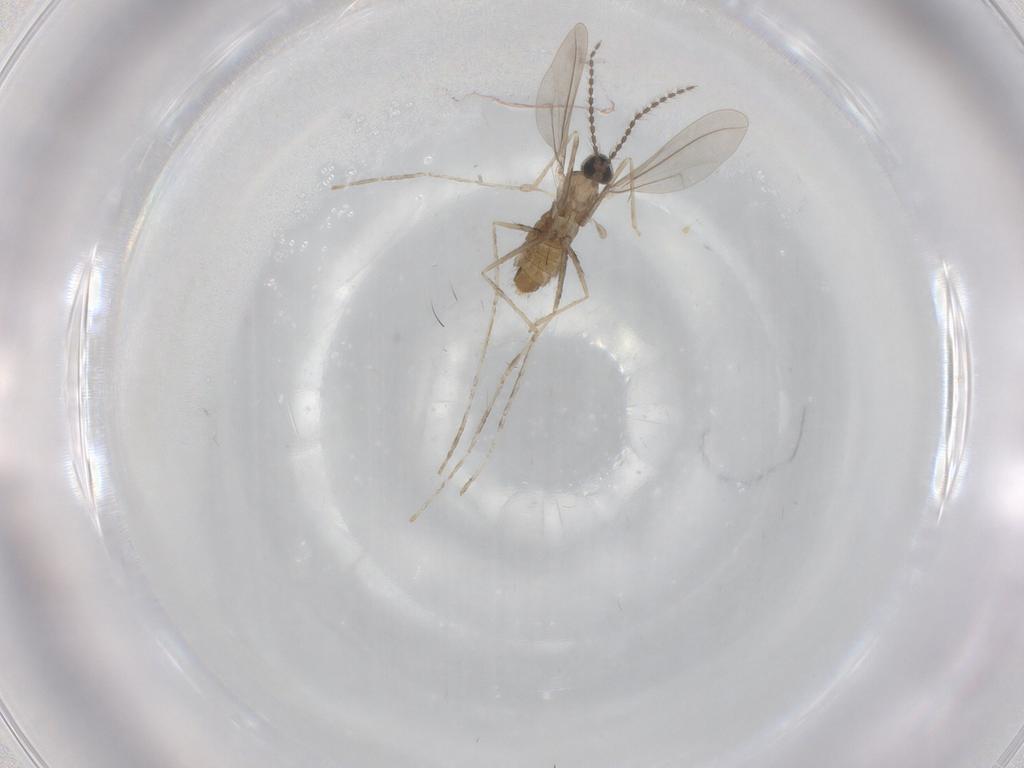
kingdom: Animalia
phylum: Arthropoda
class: Insecta
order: Diptera
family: Cecidomyiidae
